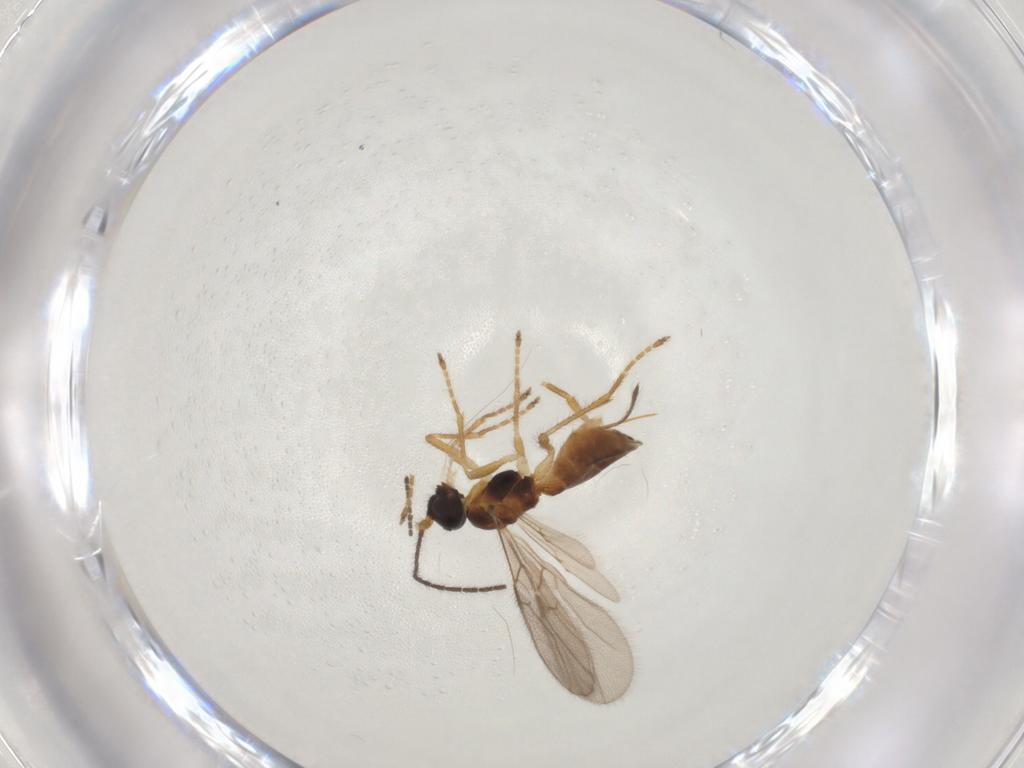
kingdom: Animalia
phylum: Arthropoda
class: Insecta
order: Hymenoptera
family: Braconidae
